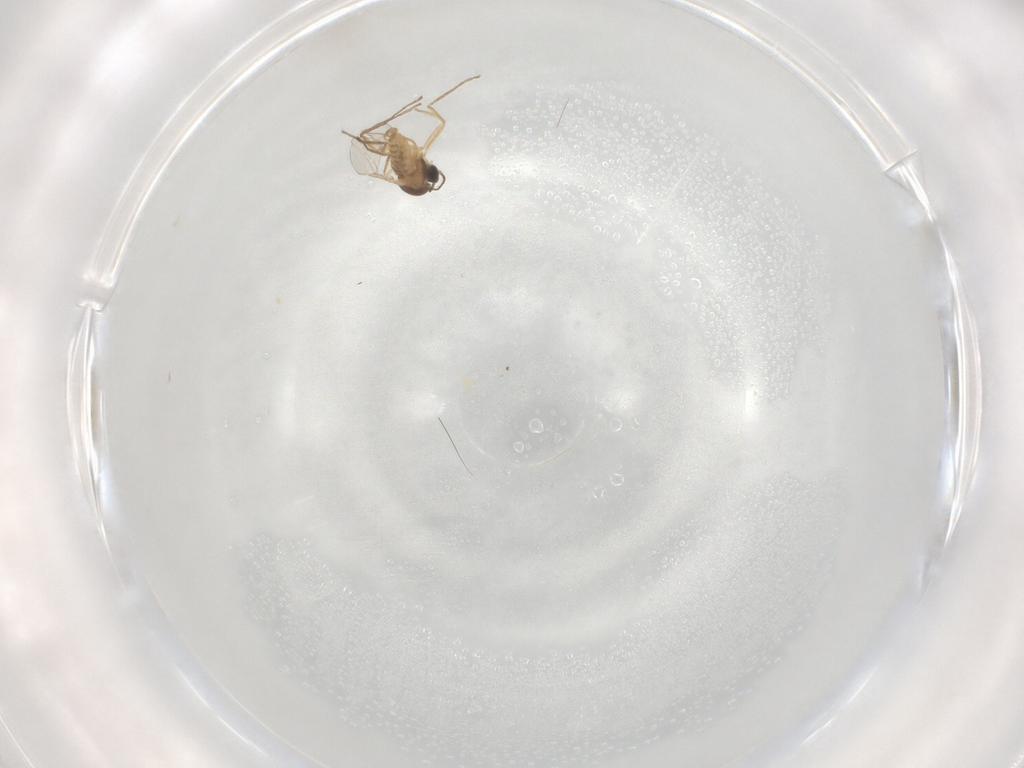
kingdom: Animalia
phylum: Arthropoda
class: Insecta
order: Diptera
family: Cecidomyiidae
